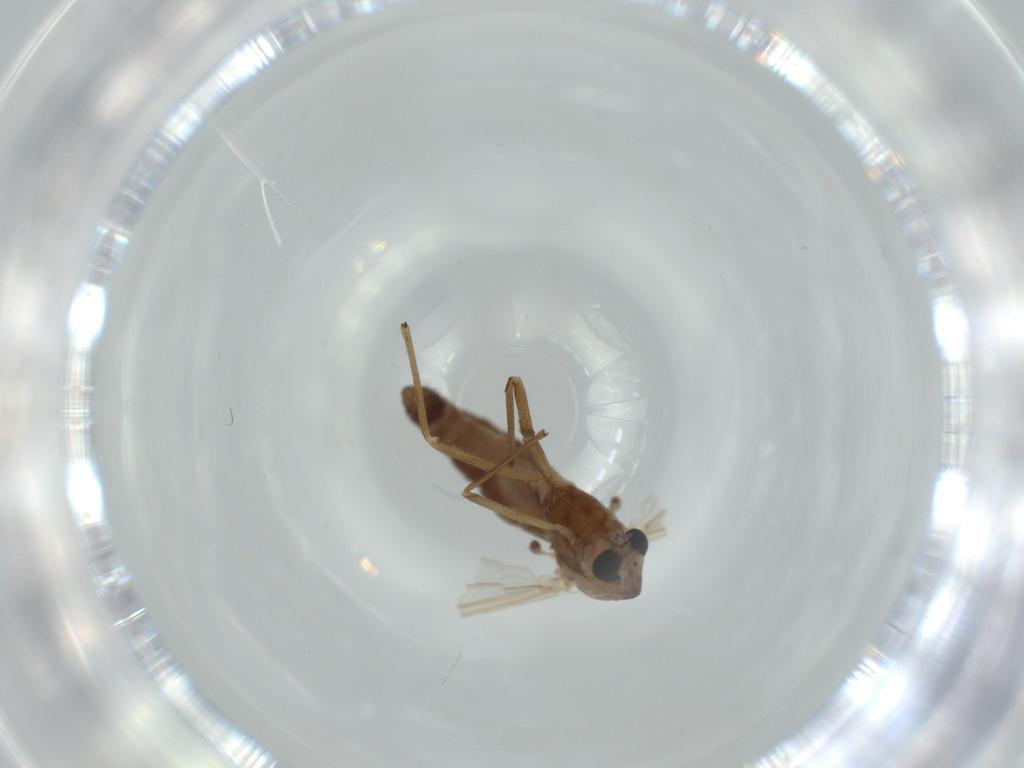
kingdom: Animalia
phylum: Arthropoda
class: Insecta
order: Diptera
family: Chironomidae
